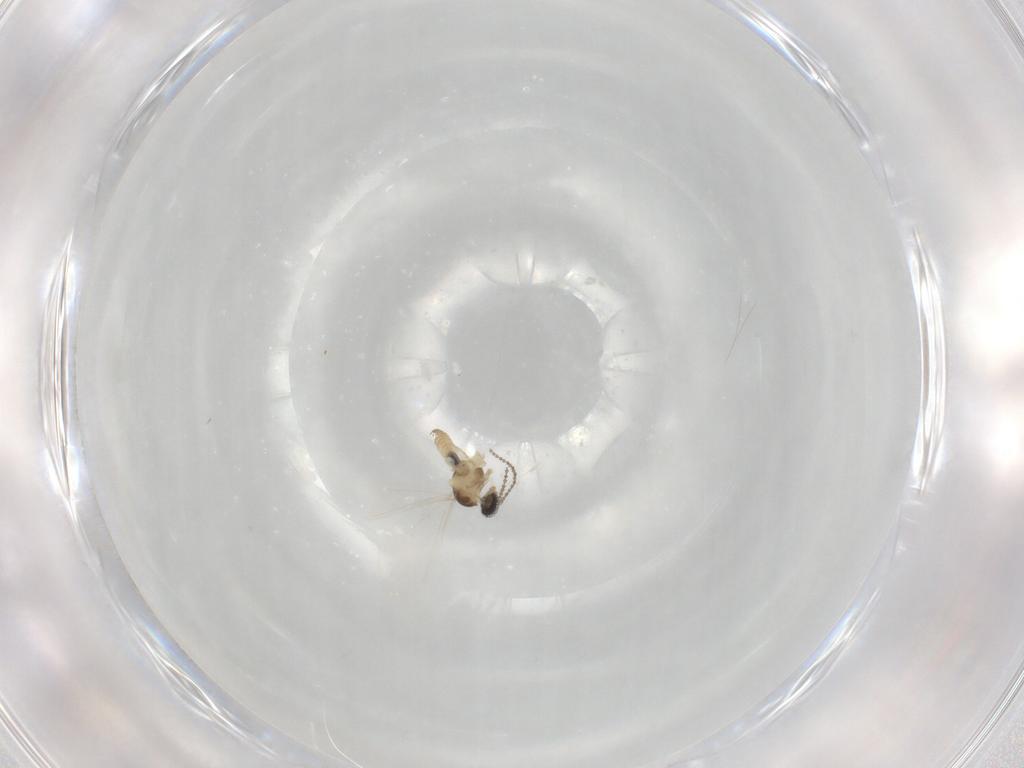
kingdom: Animalia
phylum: Arthropoda
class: Insecta
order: Diptera
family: Cecidomyiidae
